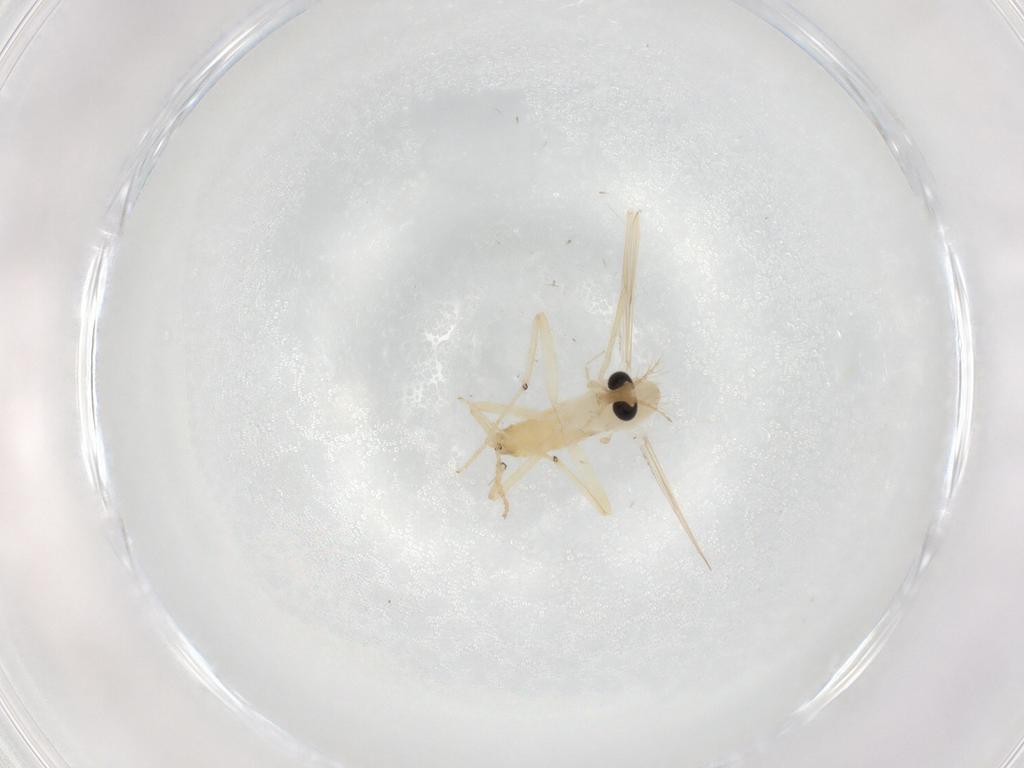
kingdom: Animalia
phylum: Arthropoda
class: Insecta
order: Diptera
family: Chironomidae
